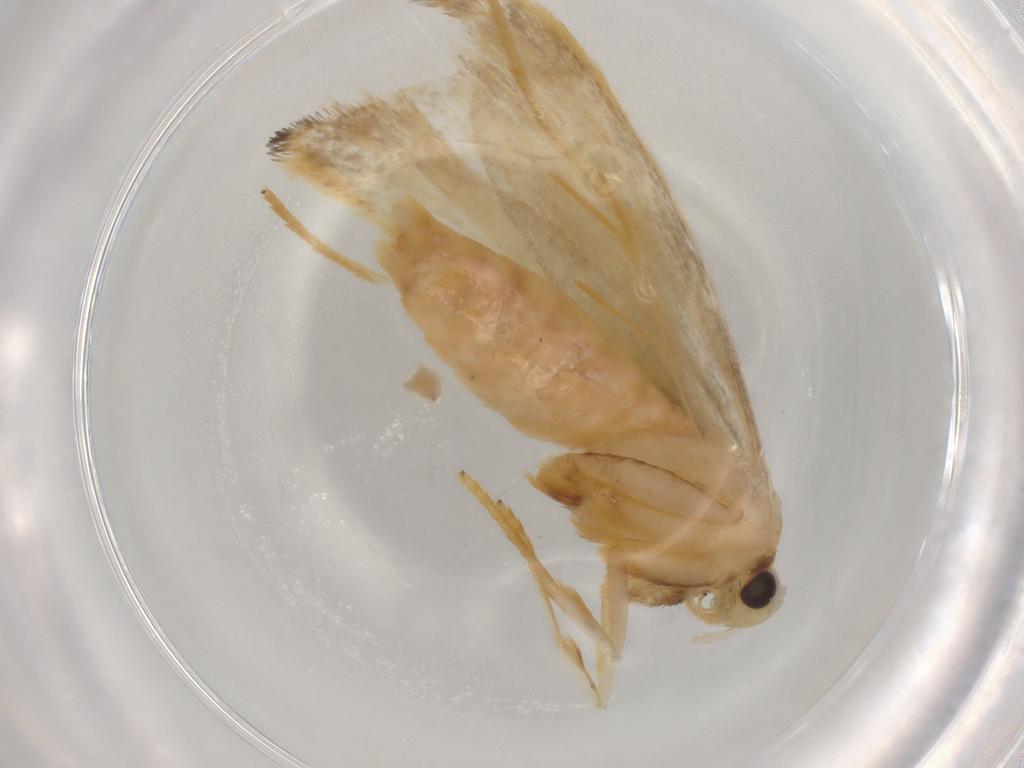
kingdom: Animalia
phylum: Arthropoda
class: Insecta
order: Lepidoptera
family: Lecithoceridae
